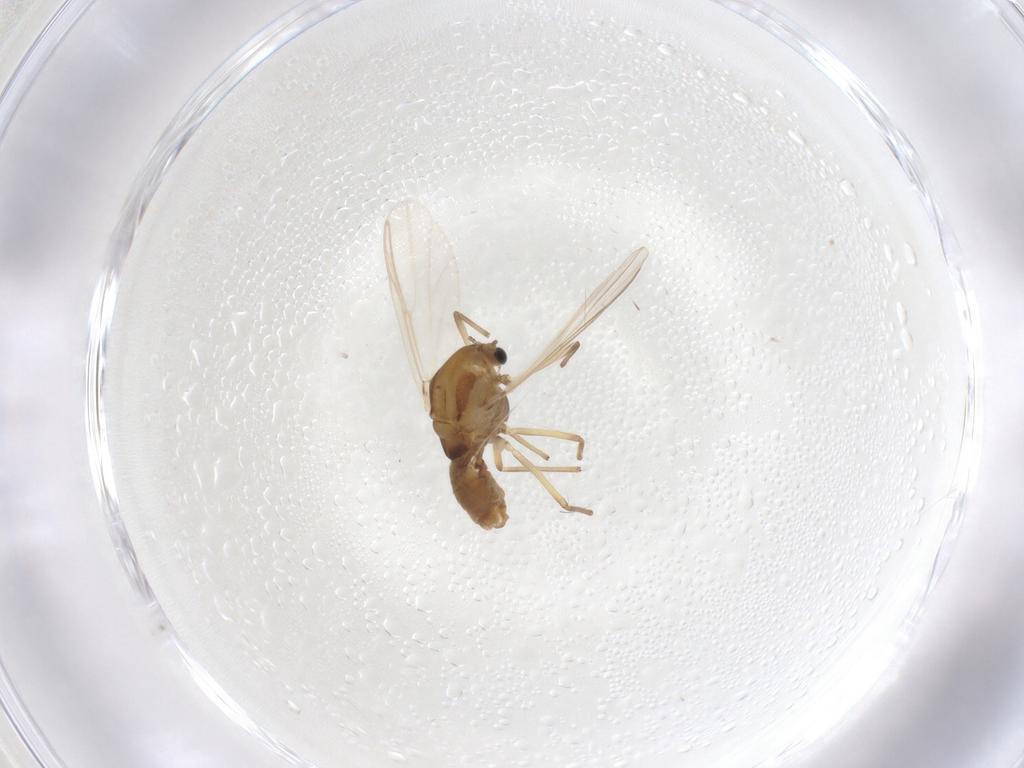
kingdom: Animalia
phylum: Arthropoda
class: Insecta
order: Diptera
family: Chironomidae
